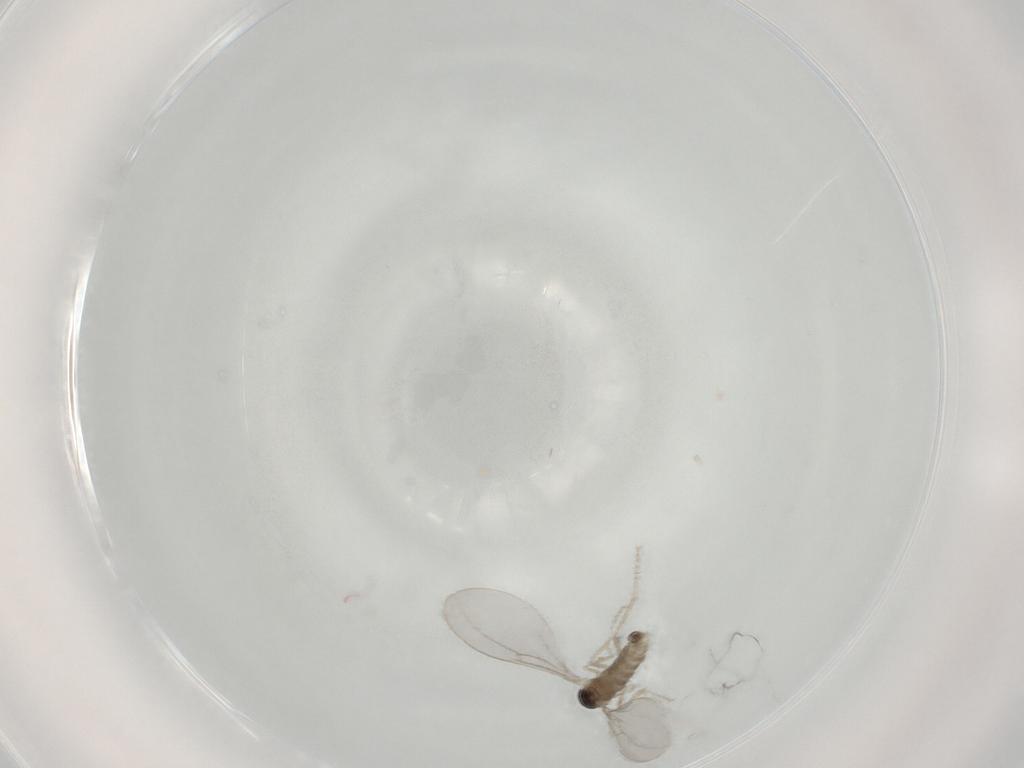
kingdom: Animalia
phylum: Arthropoda
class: Insecta
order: Diptera
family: Cecidomyiidae
